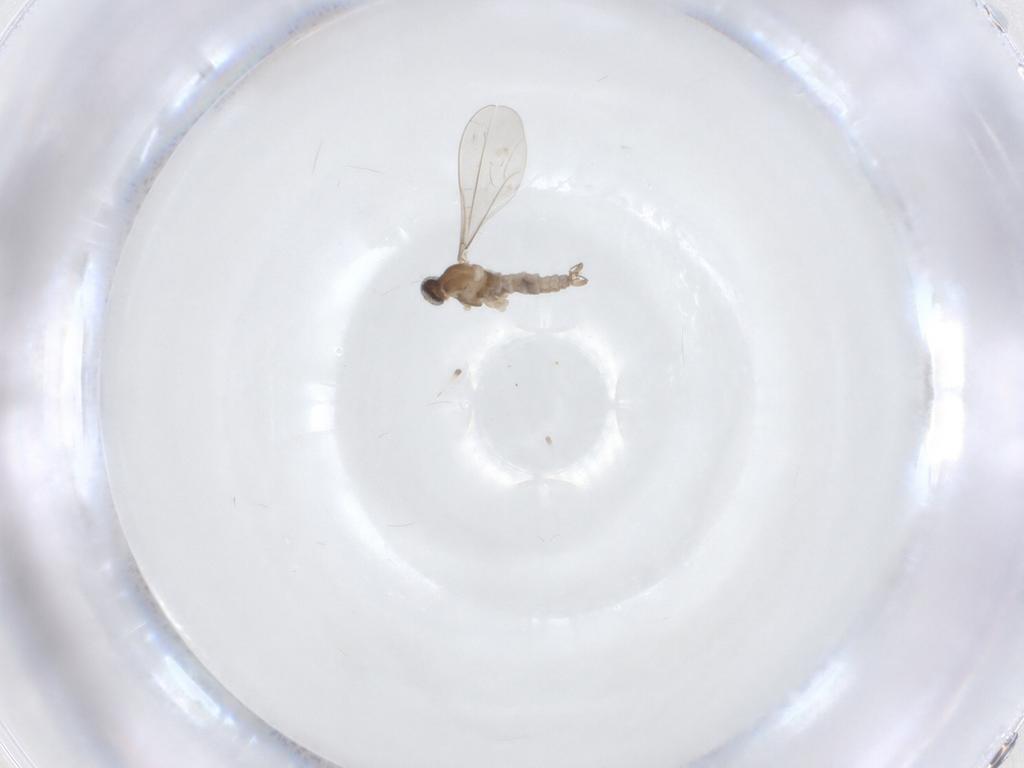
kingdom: Animalia
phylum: Arthropoda
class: Insecta
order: Diptera
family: Cecidomyiidae
